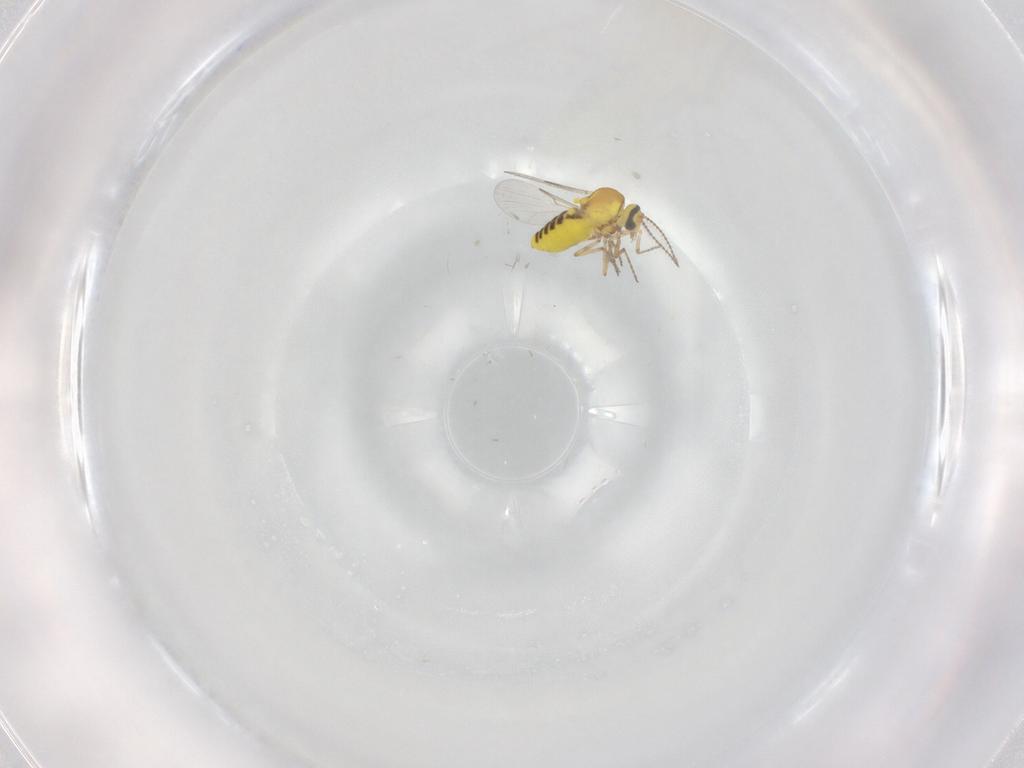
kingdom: Animalia
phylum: Arthropoda
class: Insecta
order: Diptera
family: Ceratopogonidae
